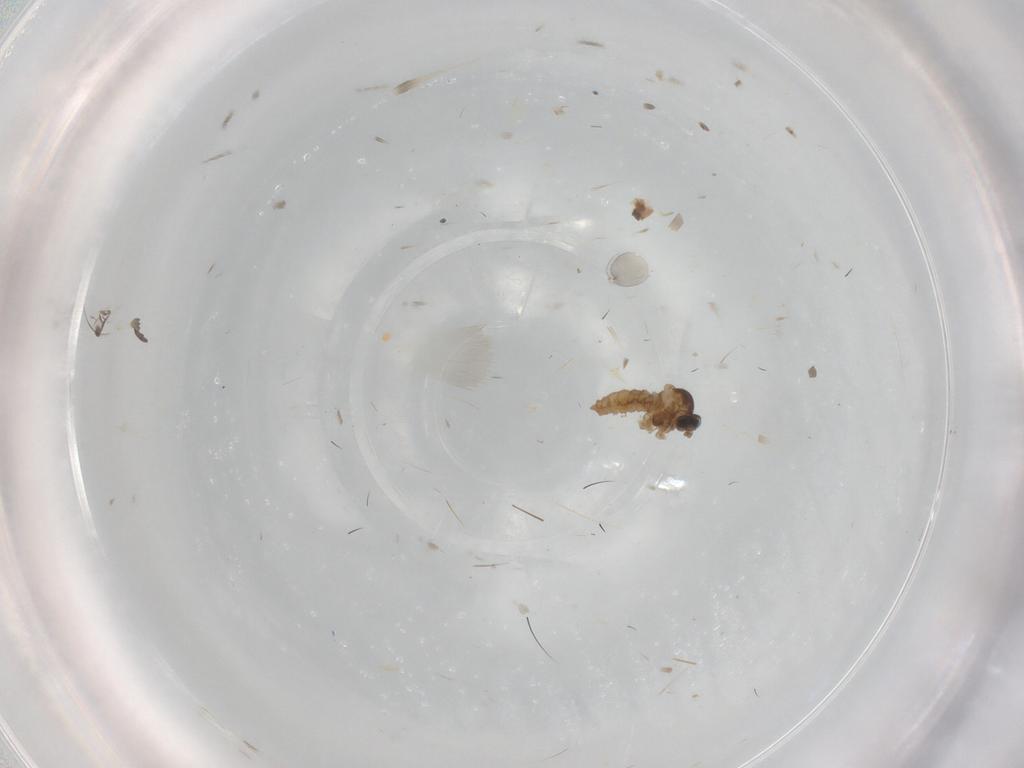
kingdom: Animalia
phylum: Arthropoda
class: Insecta
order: Diptera
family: Cecidomyiidae
